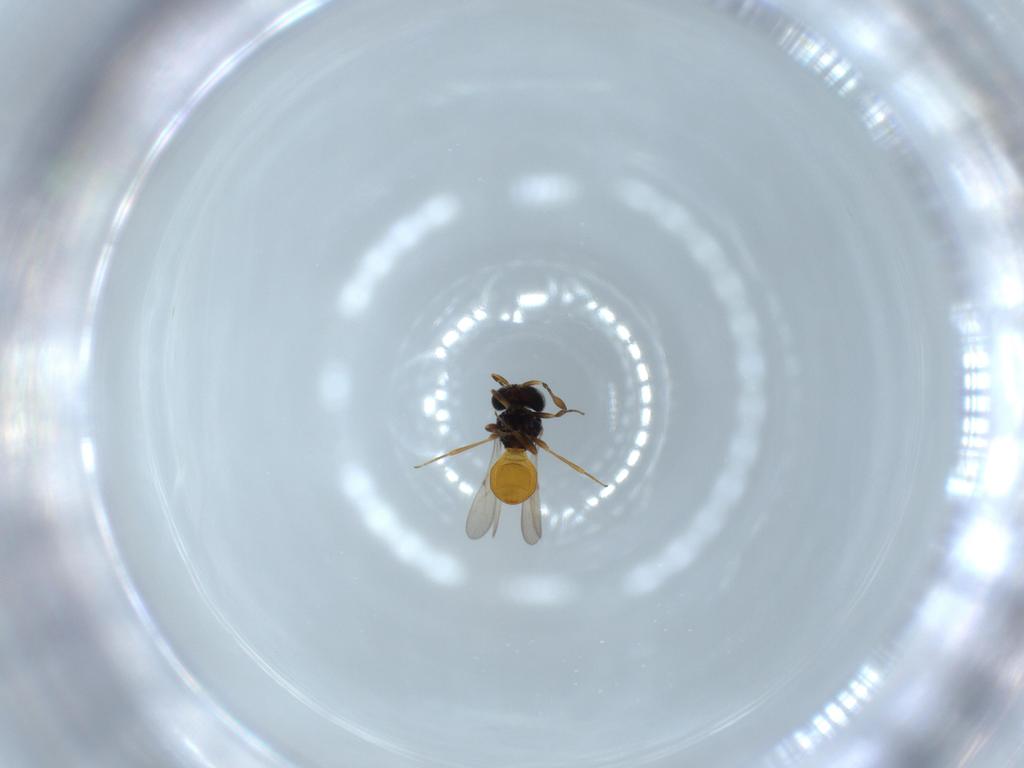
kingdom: Animalia
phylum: Arthropoda
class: Insecta
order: Hymenoptera
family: Scelionidae
